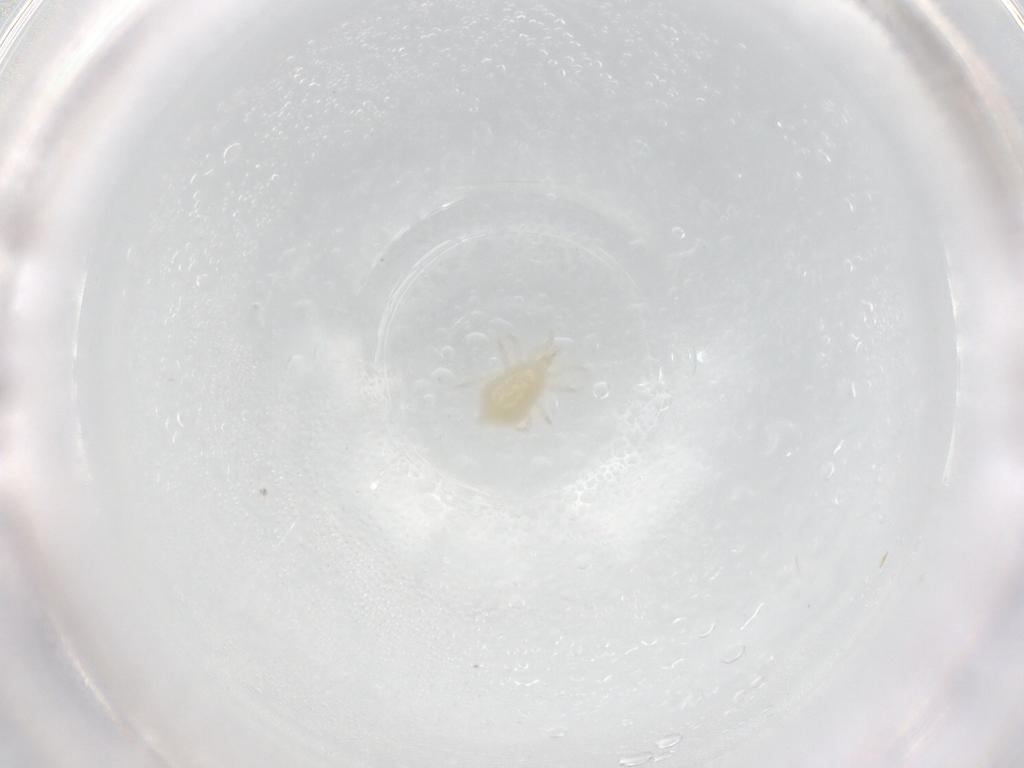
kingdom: Animalia
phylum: Arthropoda
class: Arachnida
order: Mesostigmata
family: Melicharidae
